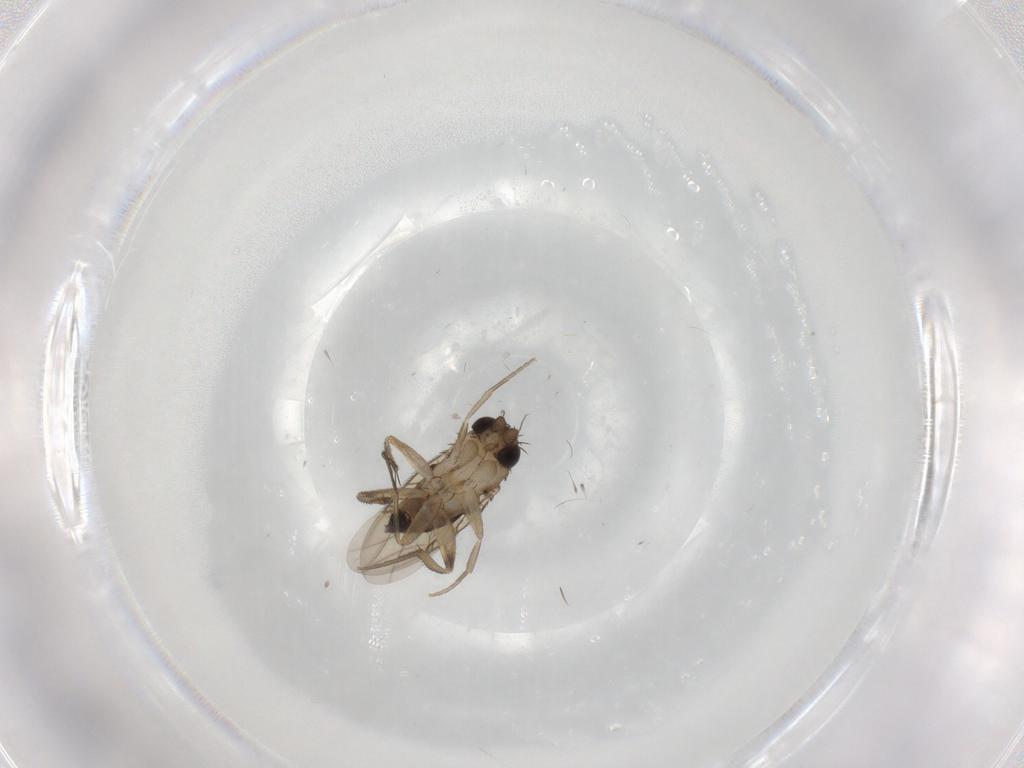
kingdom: Animalia
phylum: Arthropoda
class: Insecta
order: Diptera
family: Phoridae
